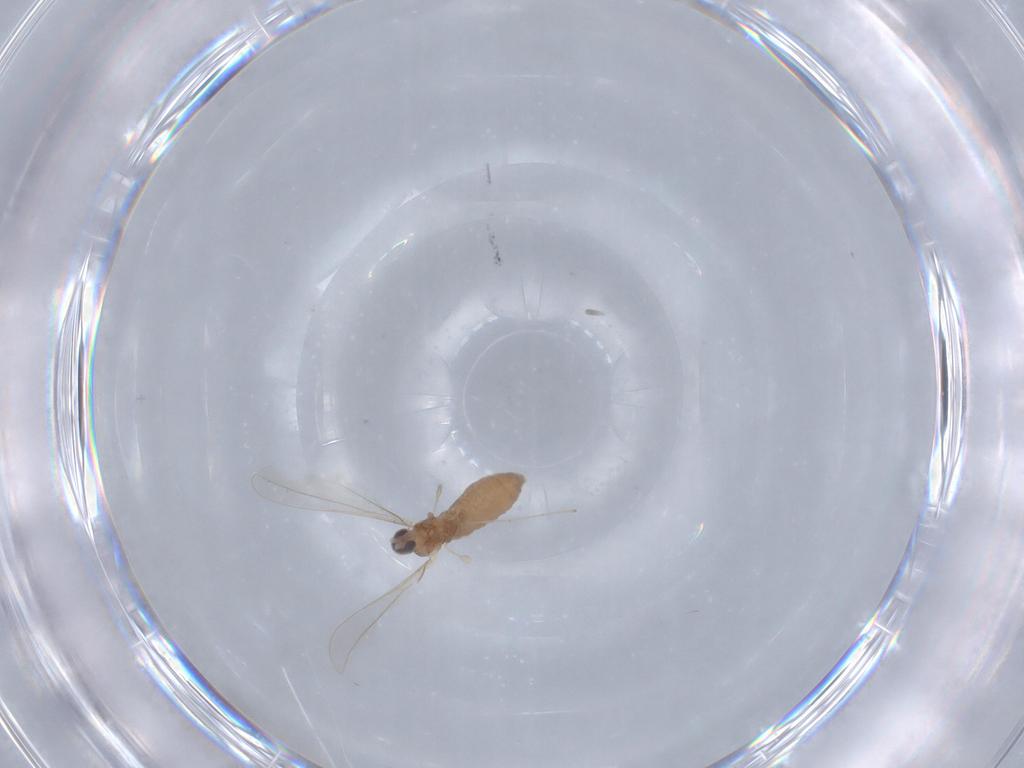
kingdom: Animalia
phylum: Arthropoda
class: Insecta
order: Diptera
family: Cecidomyiidae
